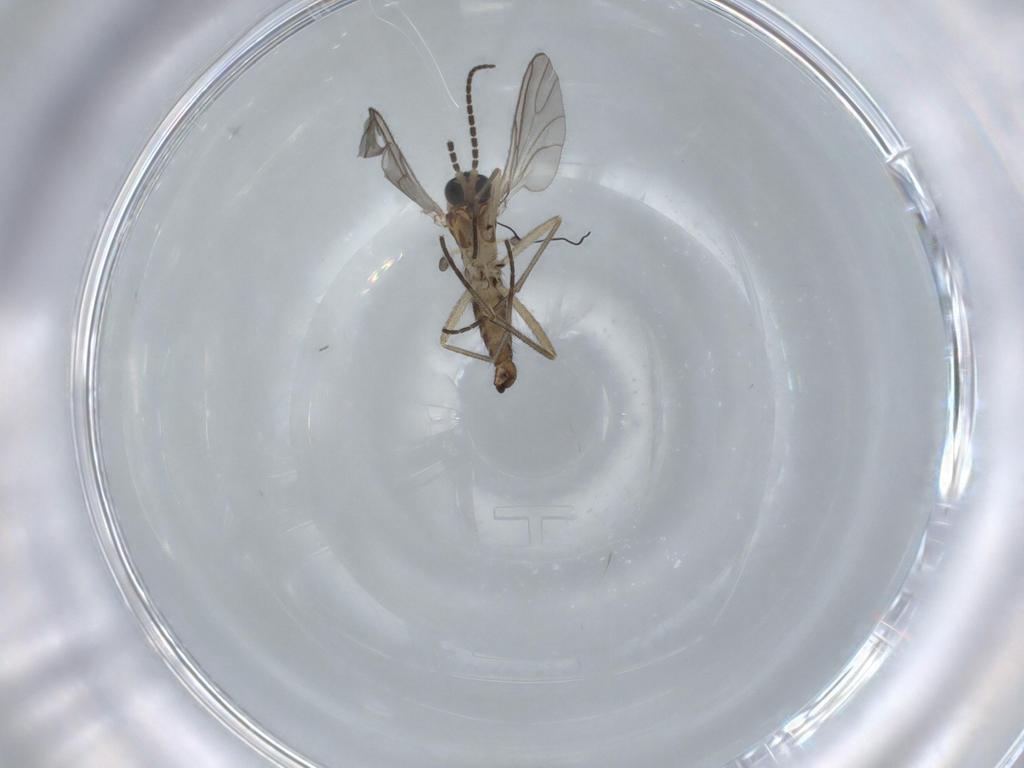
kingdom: Animalia
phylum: Arthropoda
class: Insecta
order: Diptera
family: Sciaridae
